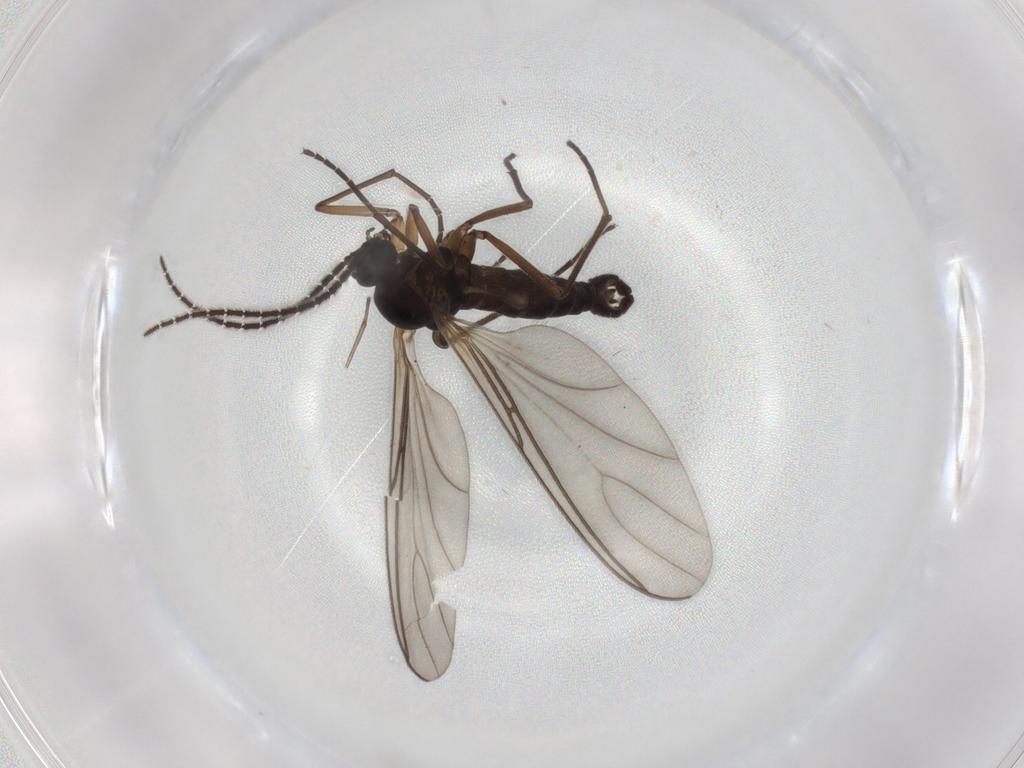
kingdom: Animalia
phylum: Arthropoda
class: Insecta
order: Diptera
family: Sciaridae
